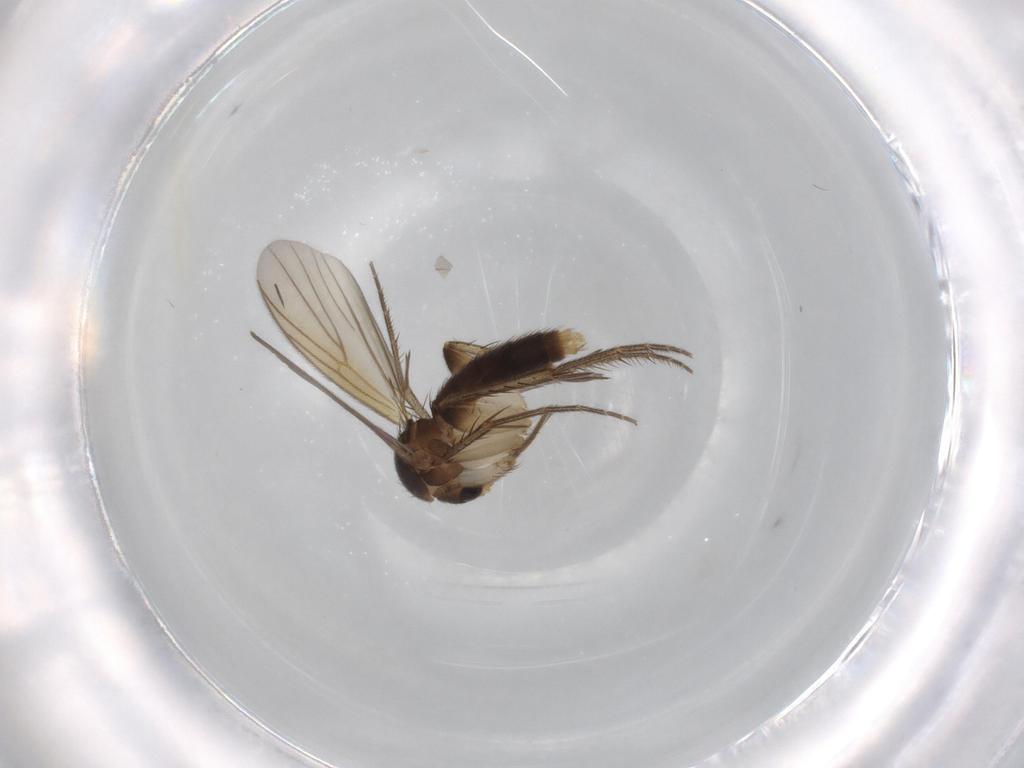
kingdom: Animalia
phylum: Arthropoda
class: Insecta
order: Diptera
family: Mycetophilidae
